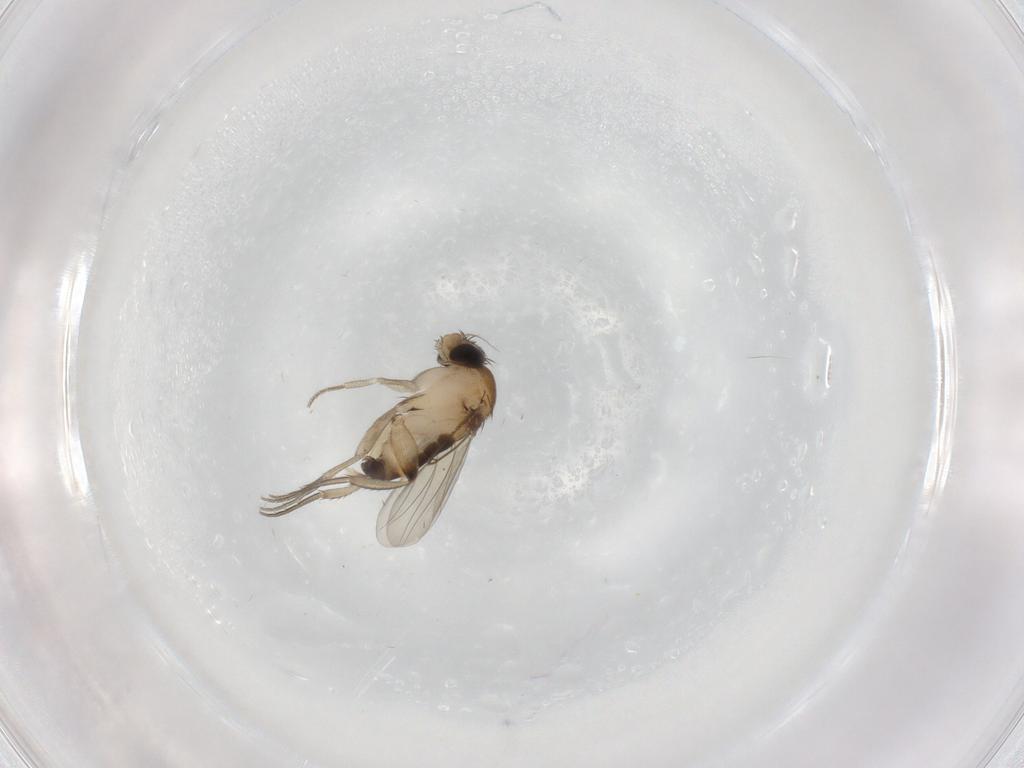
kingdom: Animalia
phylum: Arthropoda
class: Insecta
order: Diptera
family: Phoridae
